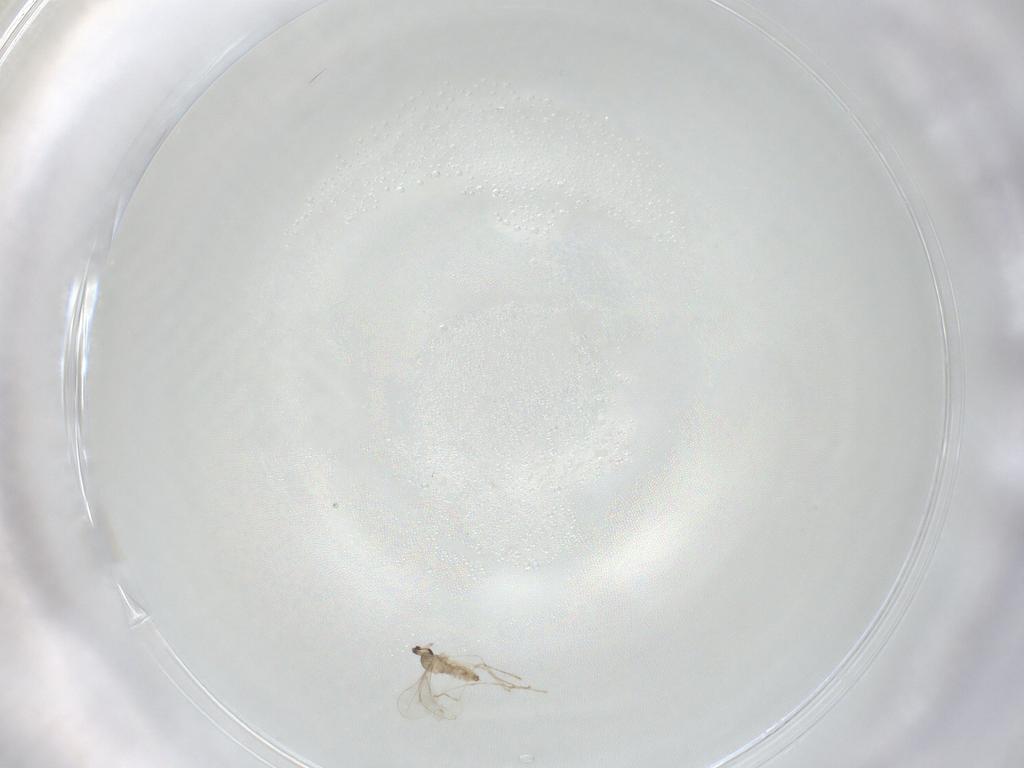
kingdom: Animalia
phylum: Arthropoda
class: Insecta
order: Diptera
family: Cecidomyiidae
